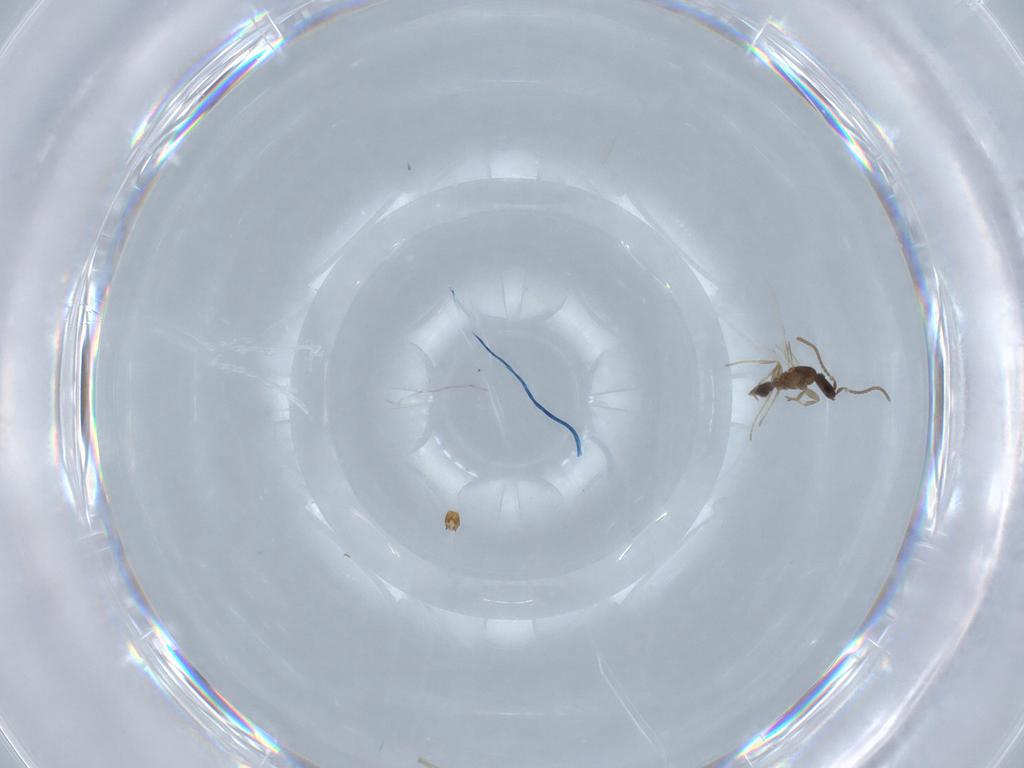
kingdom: Animalia
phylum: Arthropoda
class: Insecta
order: Hymenoptera
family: Formicidae
